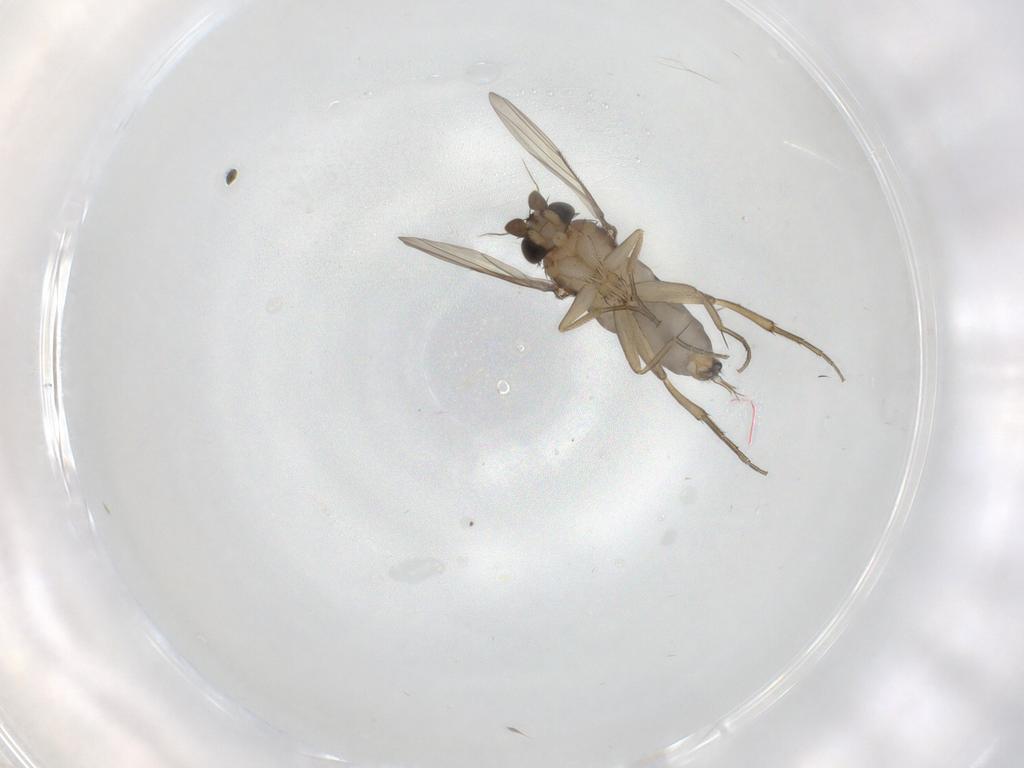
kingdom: Animalia
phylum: Arthropoda
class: Insecta
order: Diptera
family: Phoridae
